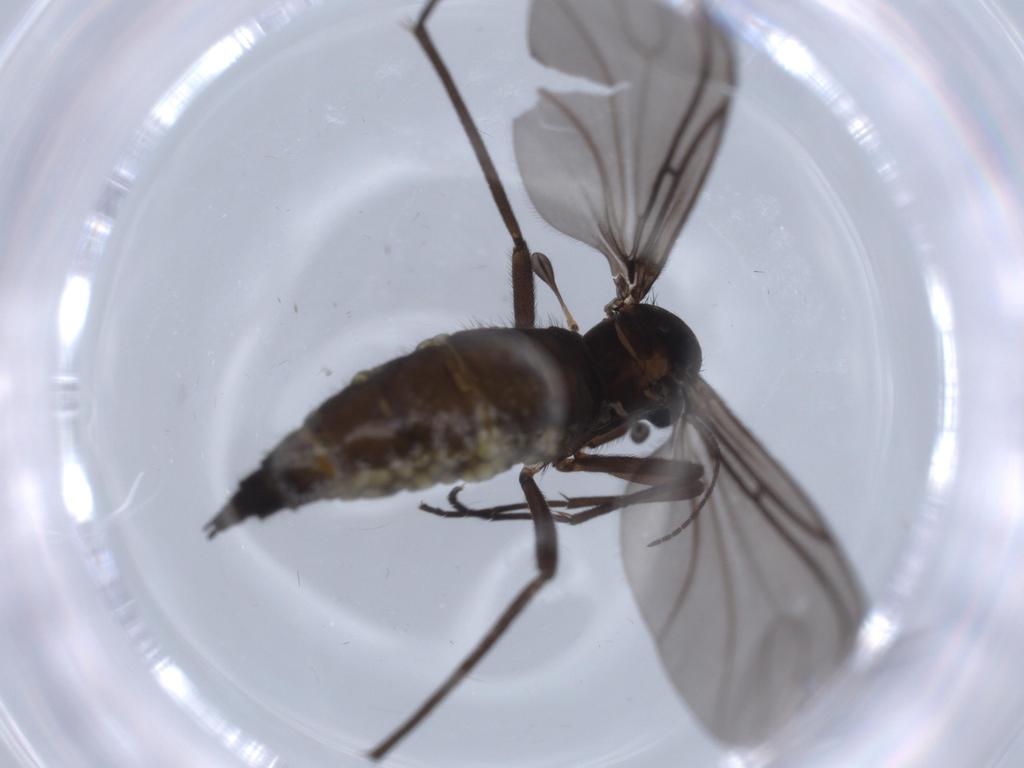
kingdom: Animalia
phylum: Arthropoda
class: Insecta
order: Diptera
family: Sciaridae
